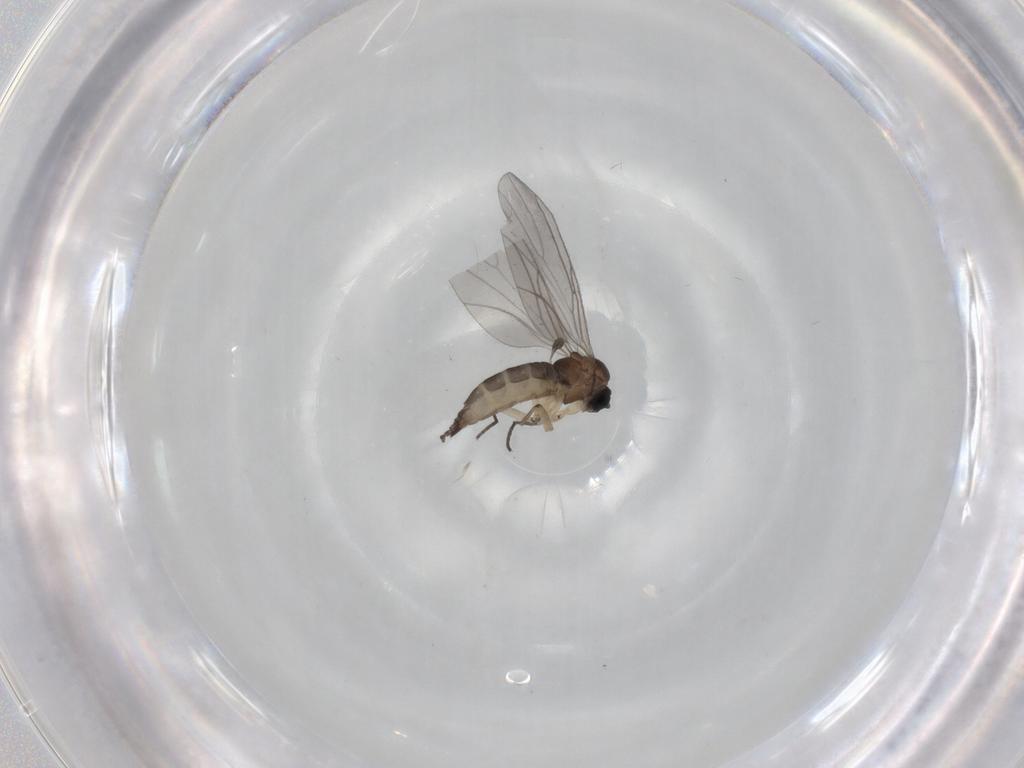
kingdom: Animalia
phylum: Arthropoda
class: Insecta
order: Diptera
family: Sciaridae
